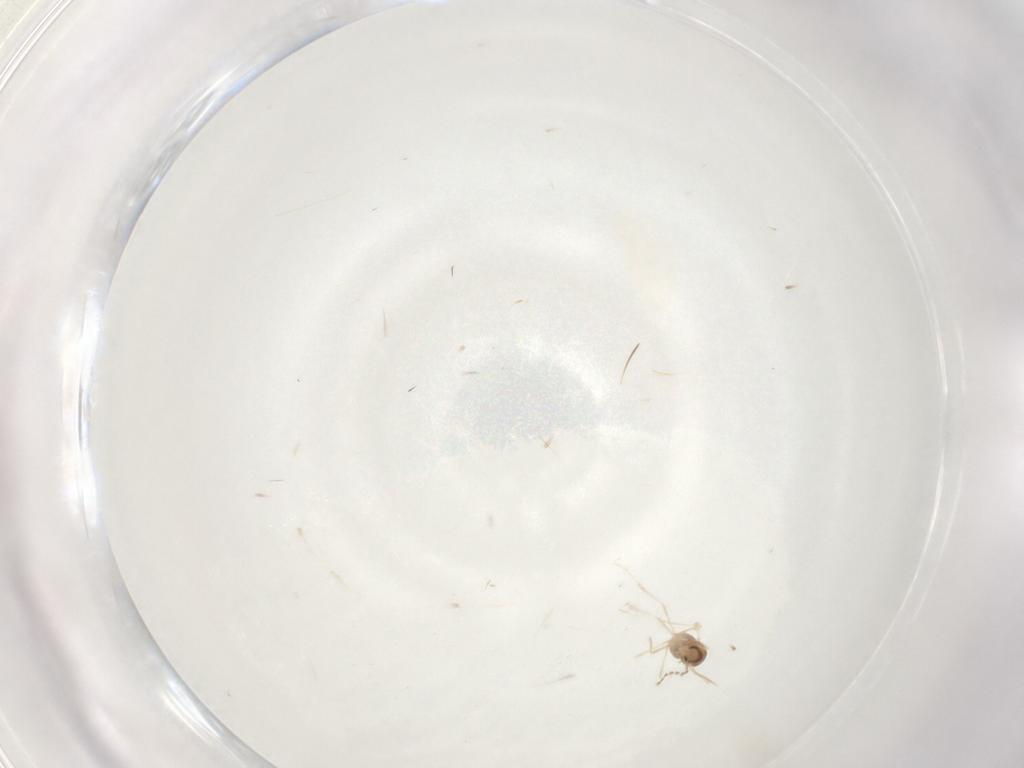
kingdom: Animalia
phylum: Arthropoda
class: Insecta
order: Diptera
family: Cecidomyiidae
